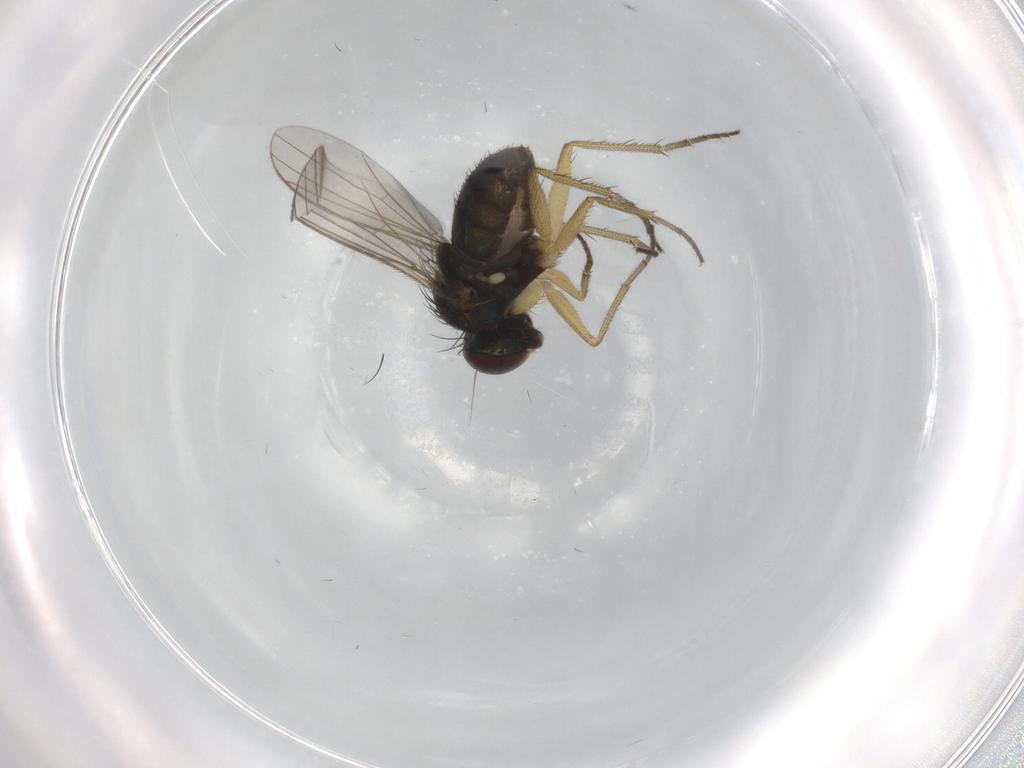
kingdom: Animalia
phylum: Arthropoda
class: Insecta
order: Diptera
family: Dolichopodidae
